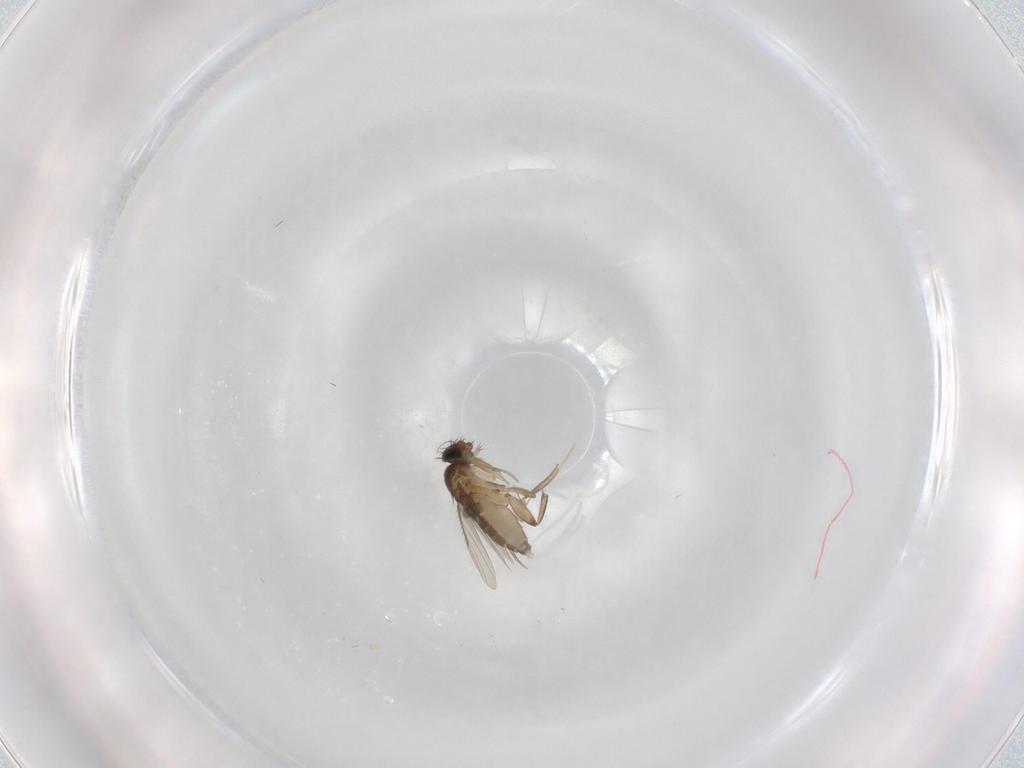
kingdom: Animalia
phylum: Arthropoda
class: Insecta
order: Diptera
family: Phoridae
